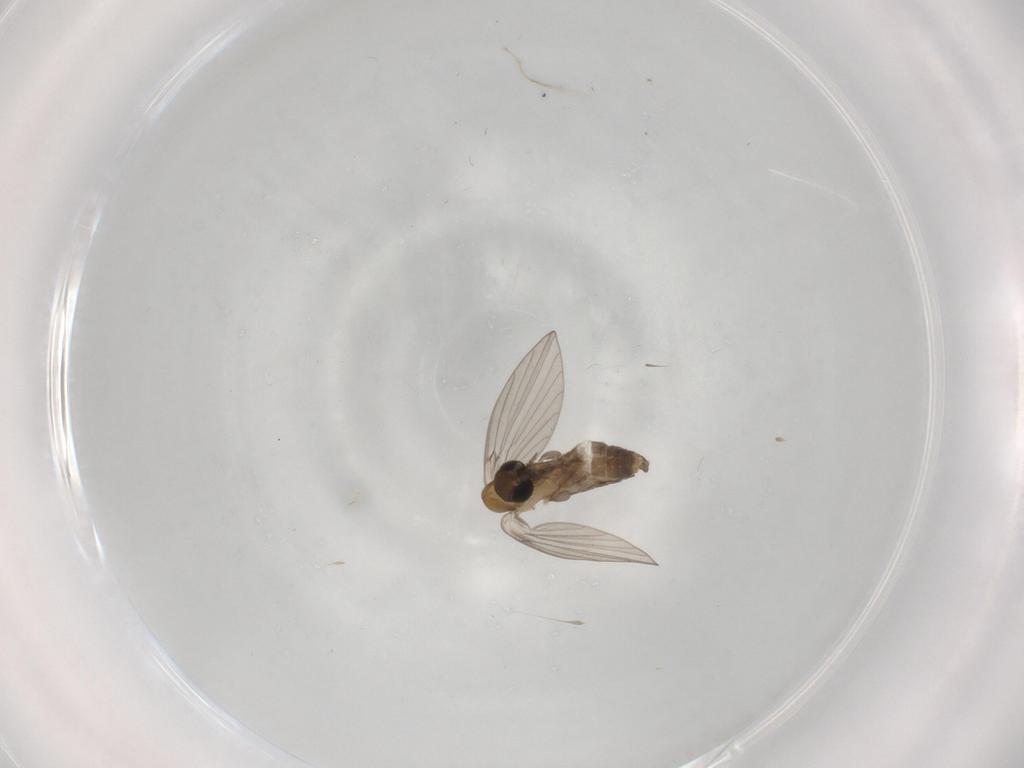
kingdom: Animalia
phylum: Arthropoda
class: Insecta
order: Diptera
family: Psychodidae
